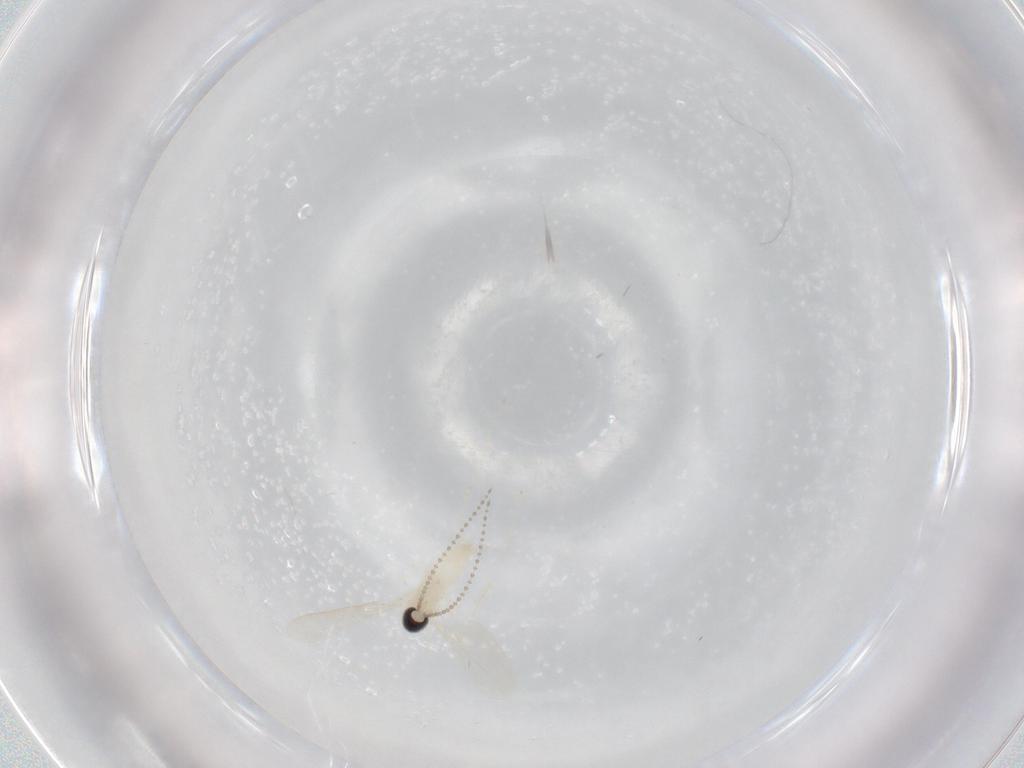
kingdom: Animalia
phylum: Arthropoda
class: Insecta
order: Diptera
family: Cecidomyiidae
